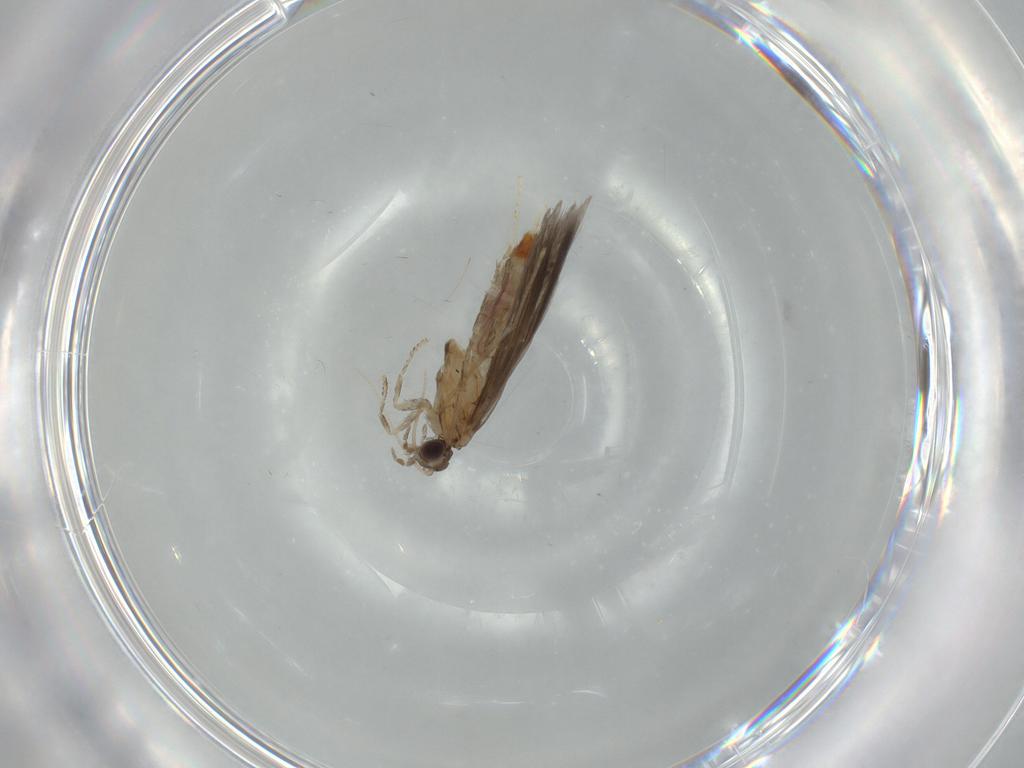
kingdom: Animalia
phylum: Arthropoda
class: Insecta
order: Trichoptera
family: Hydroptilidae
